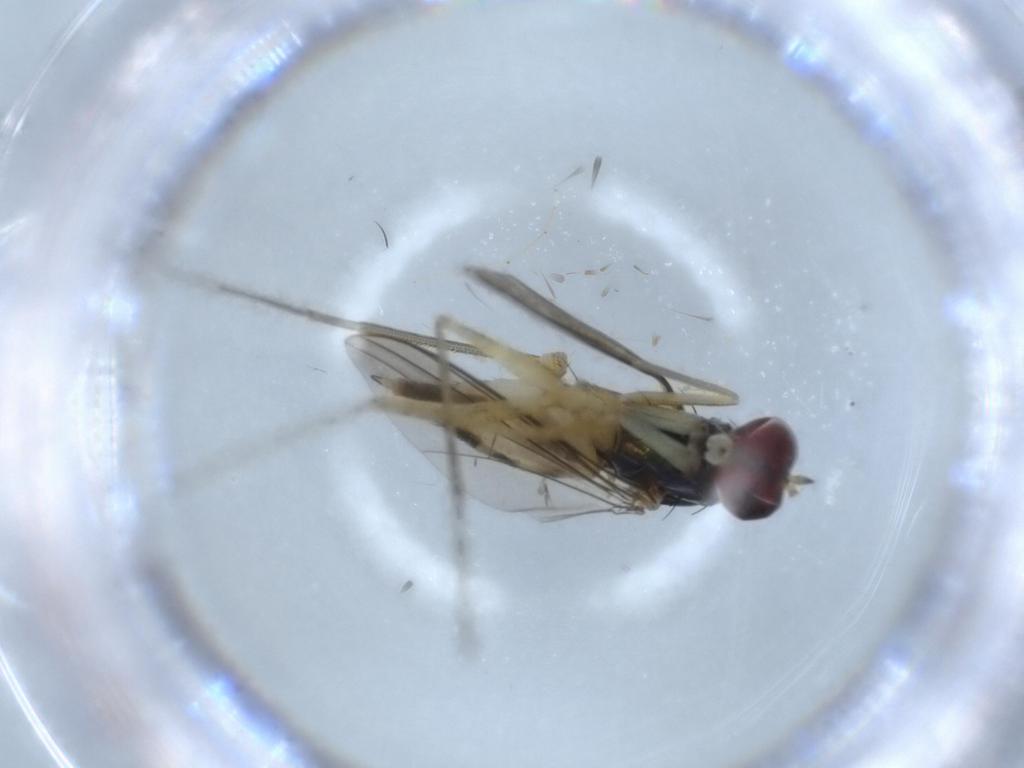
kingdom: Animalia
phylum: Arthropoda
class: Insecta
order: Diptera
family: Dolichopodidae
